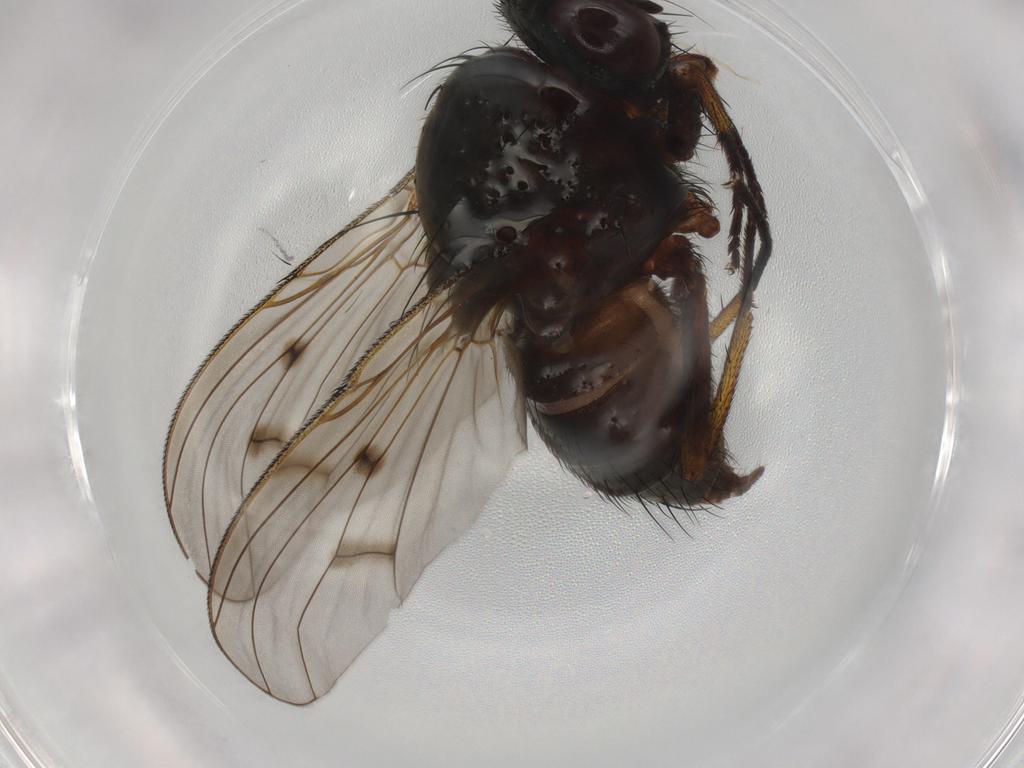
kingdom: Animalia
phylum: Arthropoda
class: Insecta
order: Diptera
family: Muscidae
